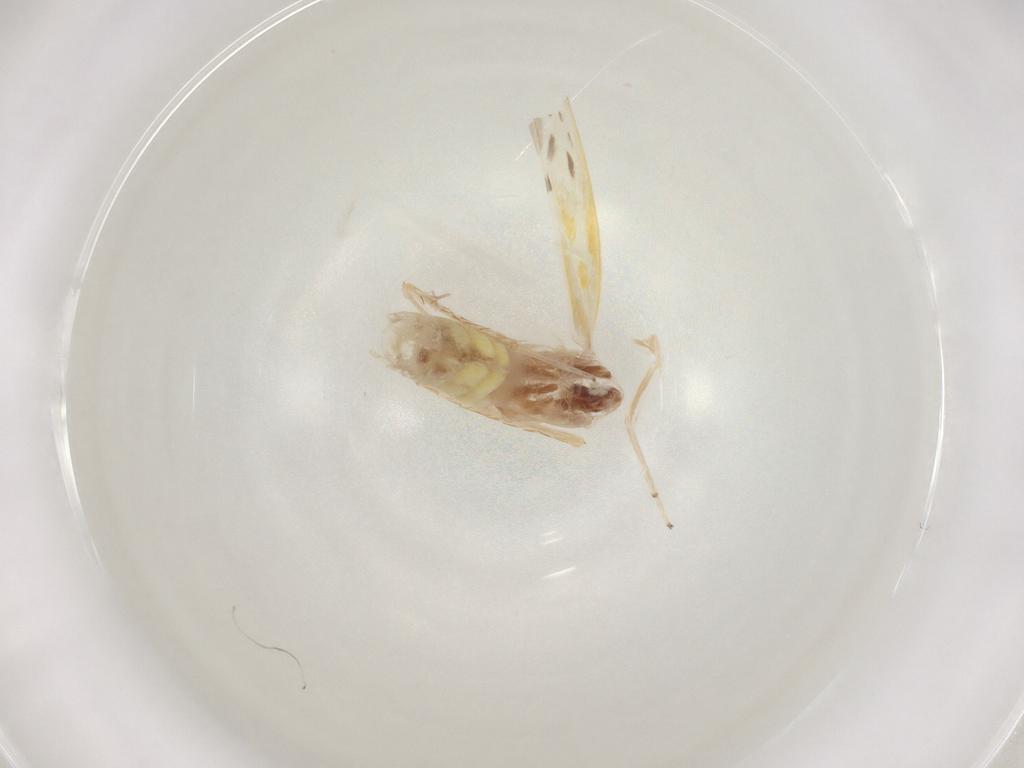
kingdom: Animalia
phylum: Arthropoda
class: Insecta
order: Hemiptera
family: Cicadellidae
